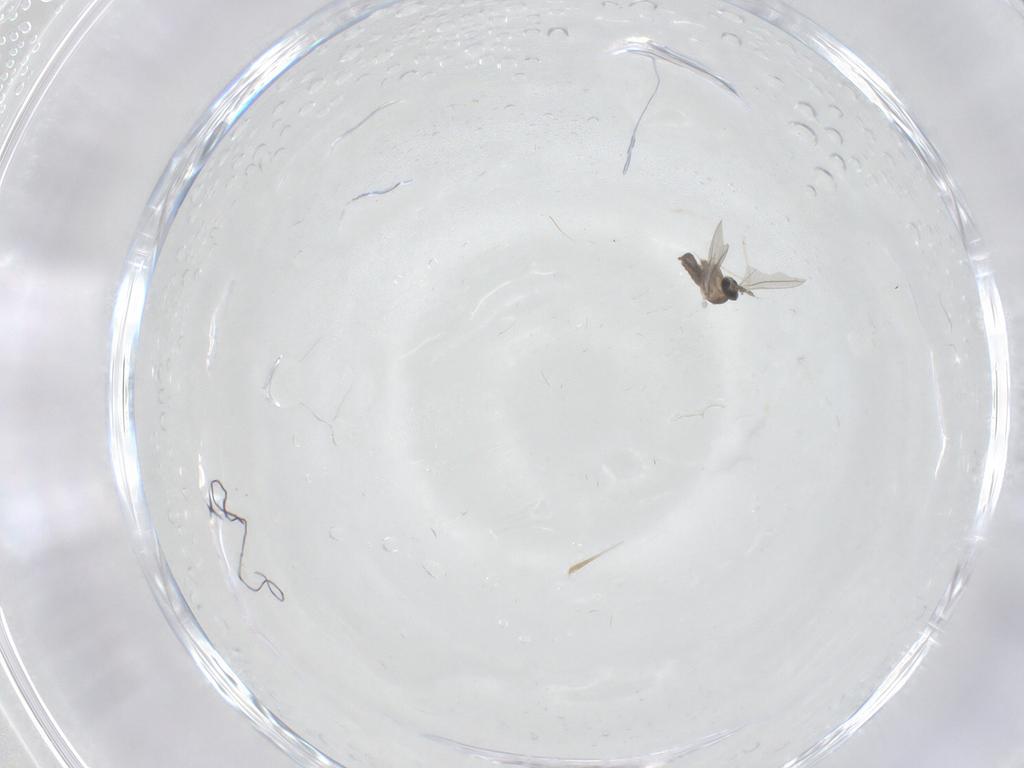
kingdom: Animalia
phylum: Arthropoda
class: Insecta
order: Diptera
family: Cecidomyiidae
